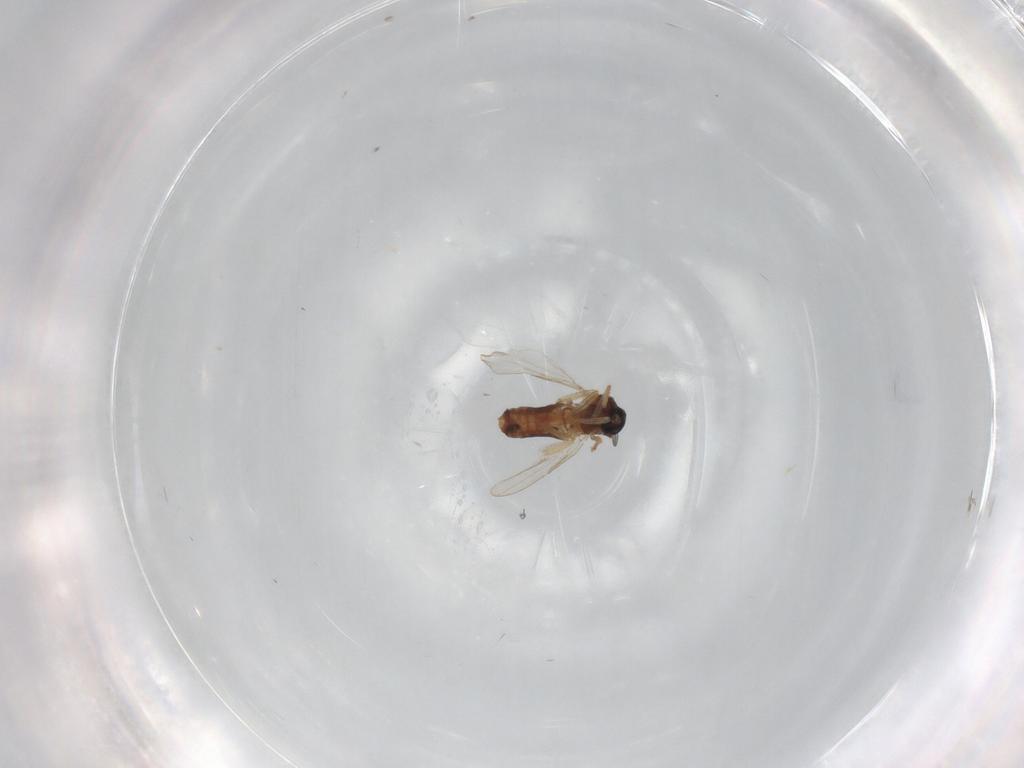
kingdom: Animalia
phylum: Arthropoda
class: Insecta
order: Diptera
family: Ceratopogonidae
